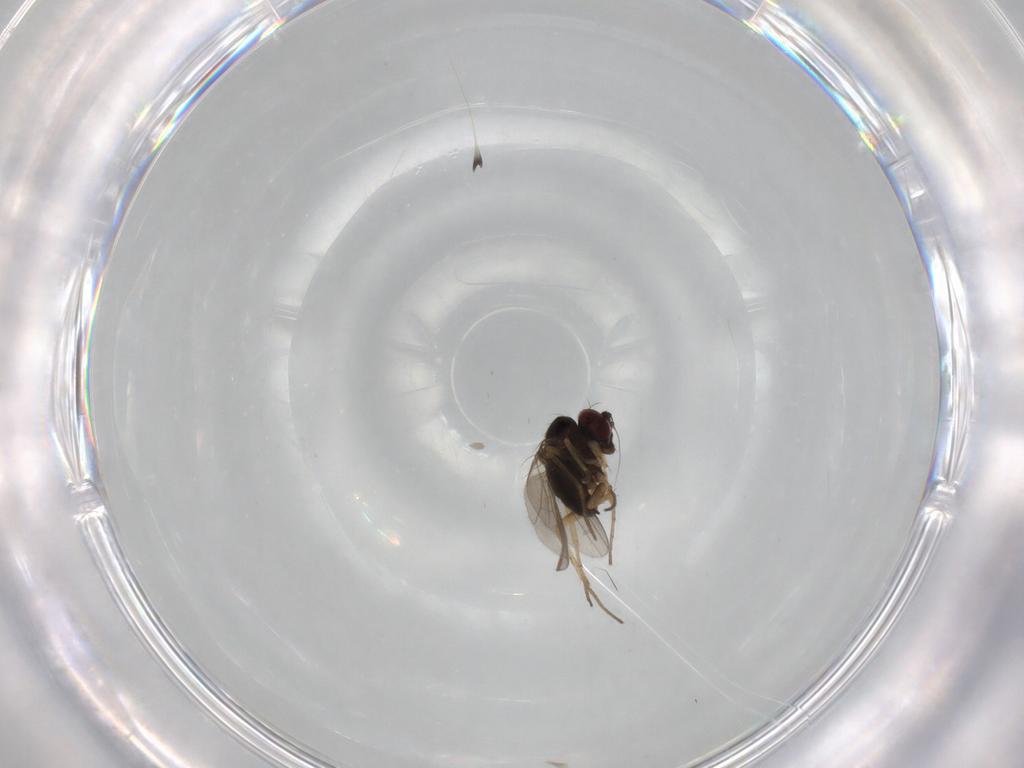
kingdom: Animalia
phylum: Arthropoda
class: Insecta
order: Diptera
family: Dolichopodidae
